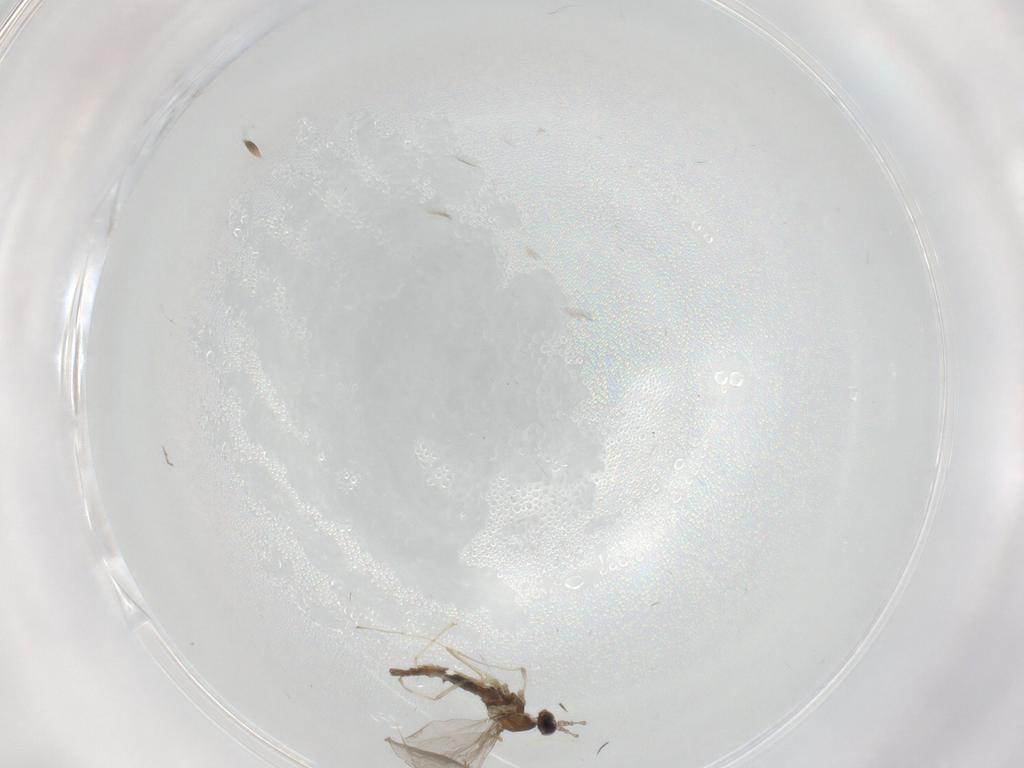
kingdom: Animalia
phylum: Arthropoda
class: Insecta
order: Diptera
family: Cecidomyiidae
